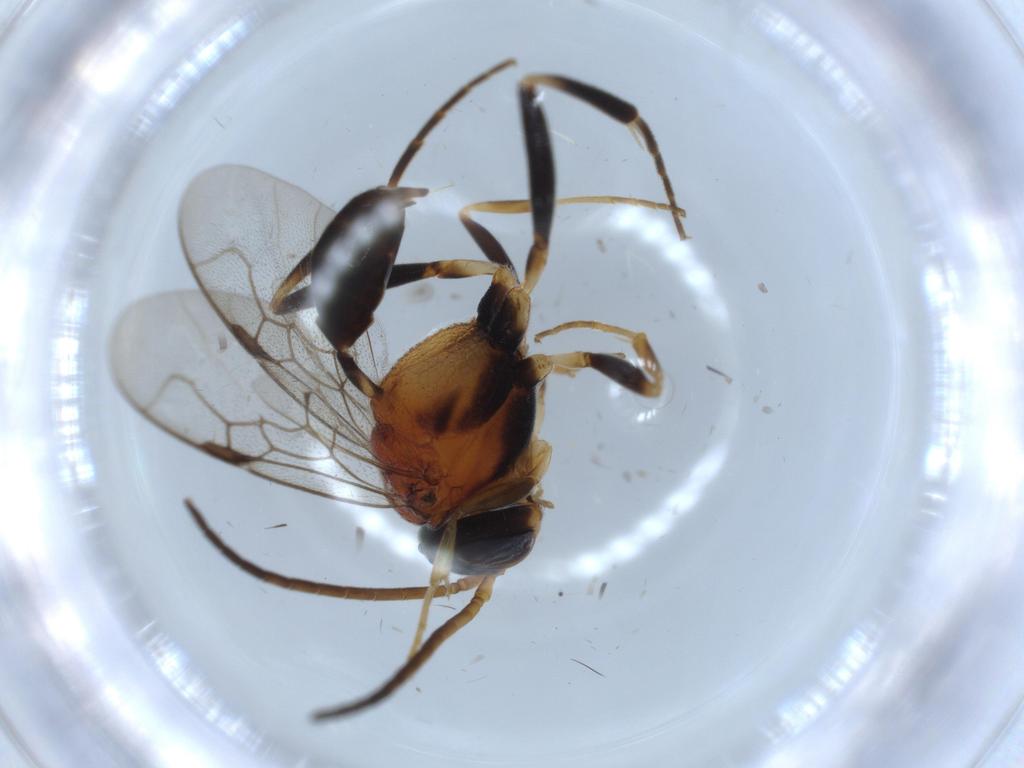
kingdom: Animalia
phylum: Arthropoda
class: Insecta
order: Hymenoptera
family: Evaniidae
